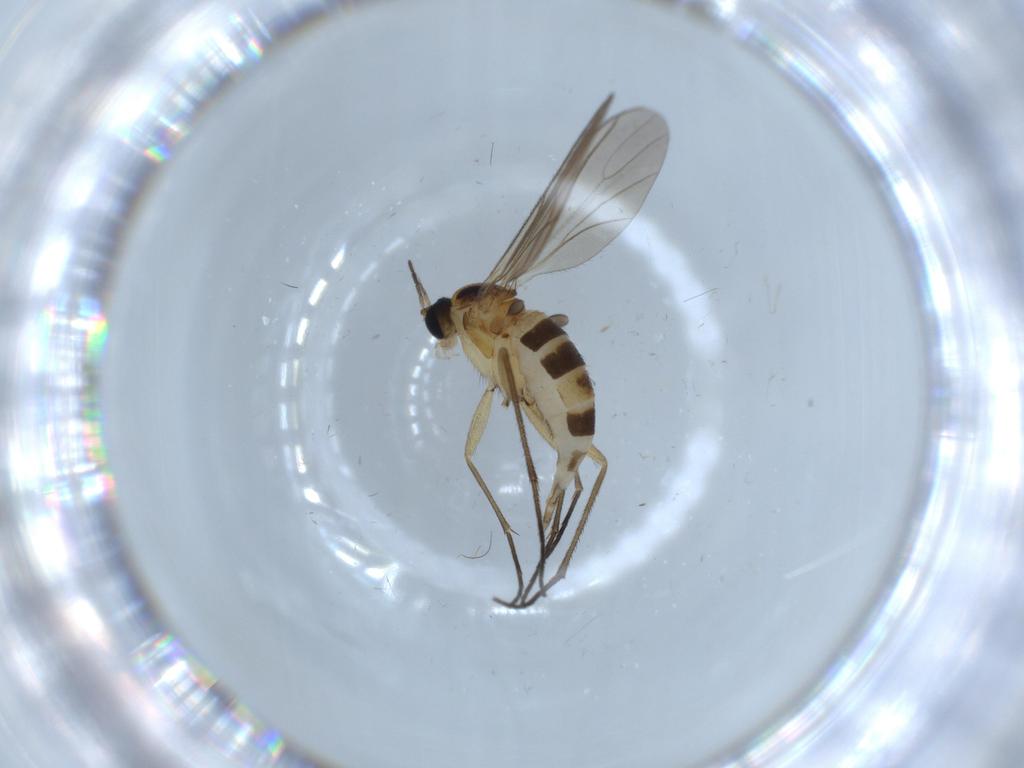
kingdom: Animalia
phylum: Arthropoda
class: Insecta
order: Diptera
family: Sciaridae
